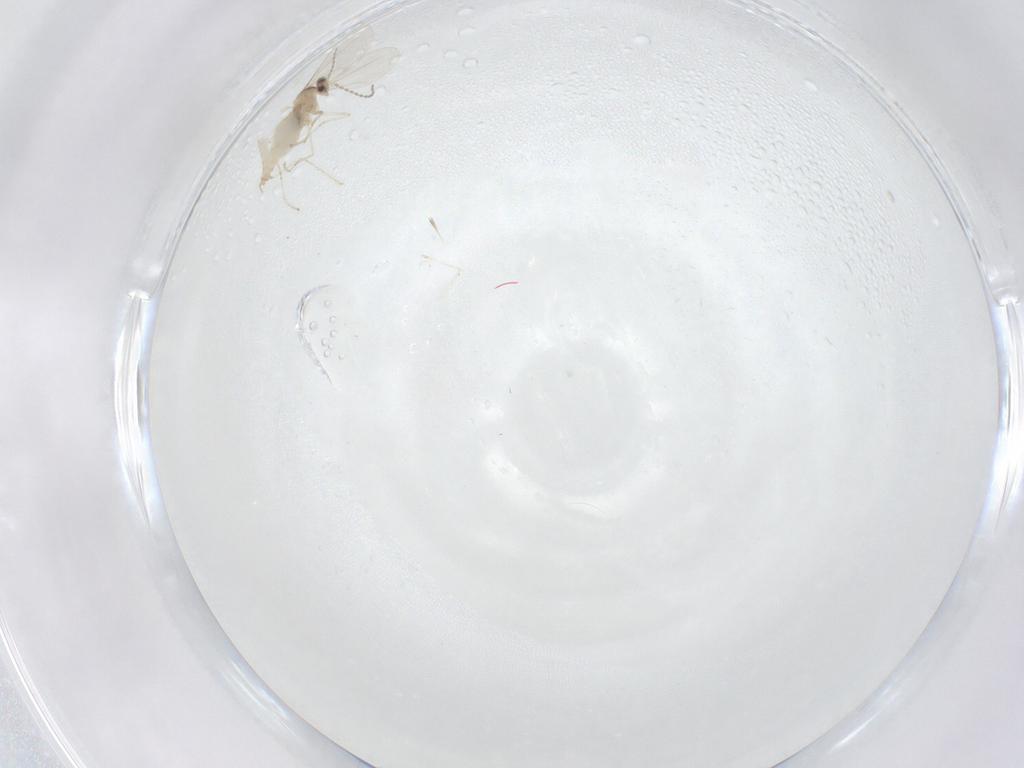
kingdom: Animalia
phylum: Arthropoda
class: Insecta
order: Diptera
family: Cecidomyiidae
